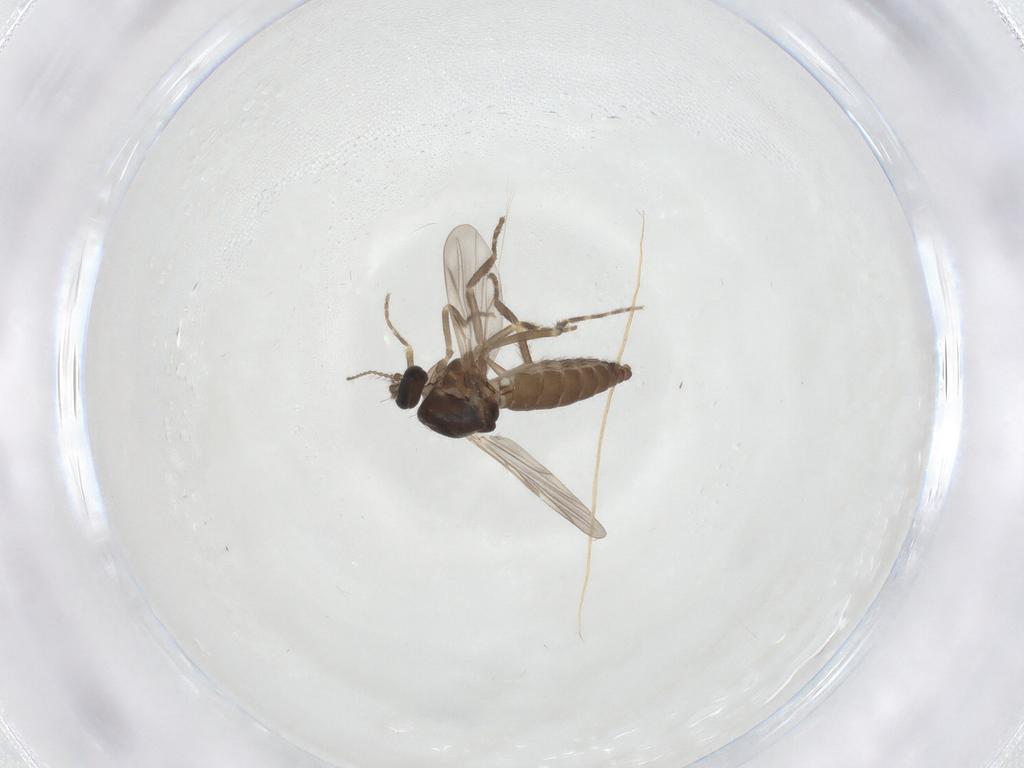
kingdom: Animalia
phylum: Arthropoda
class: Insecta
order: Diptera
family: Ceratopogonidae
